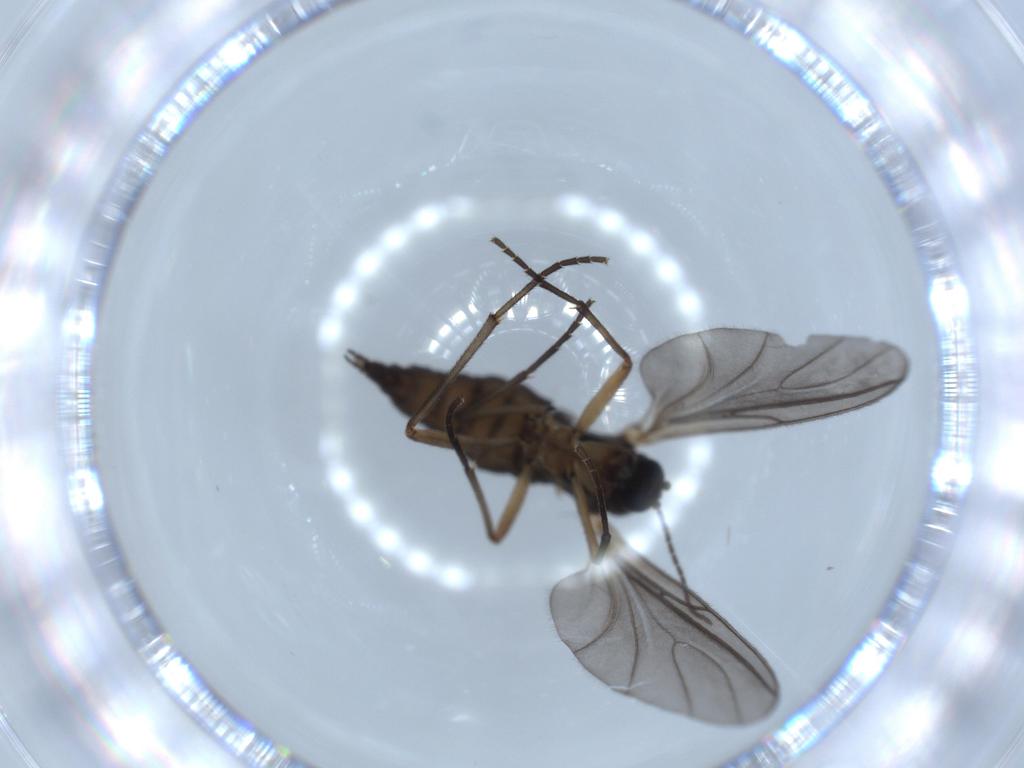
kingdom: Animalia
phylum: Arthropoda
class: Insecta
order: Diptera
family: Sciaridae
